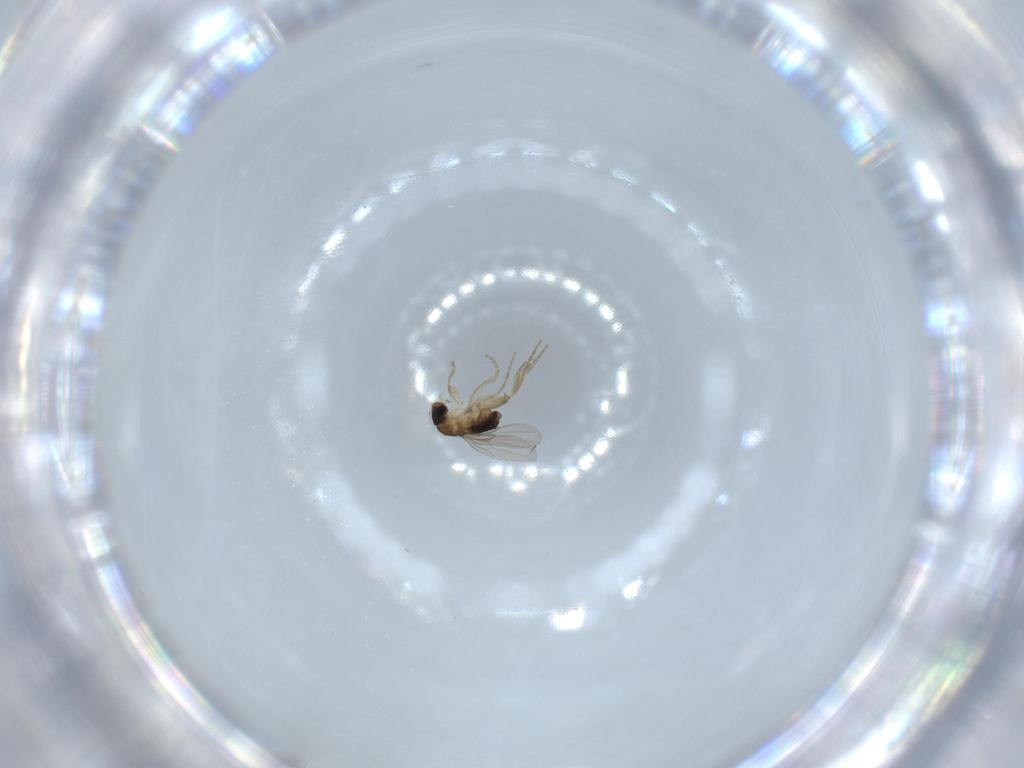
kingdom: Animalia
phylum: Arthropoda
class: Insecta
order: Diptera
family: Phoridae
